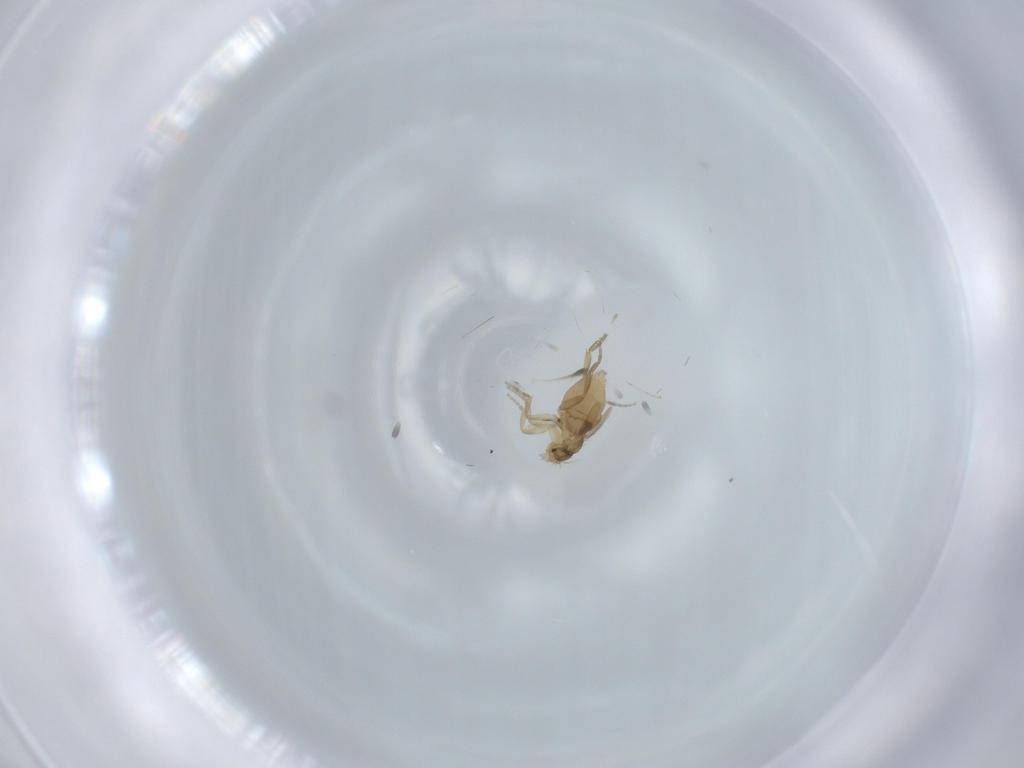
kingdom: Animalia
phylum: Arthropoda
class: Insecta
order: Diptera
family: Phoridae
